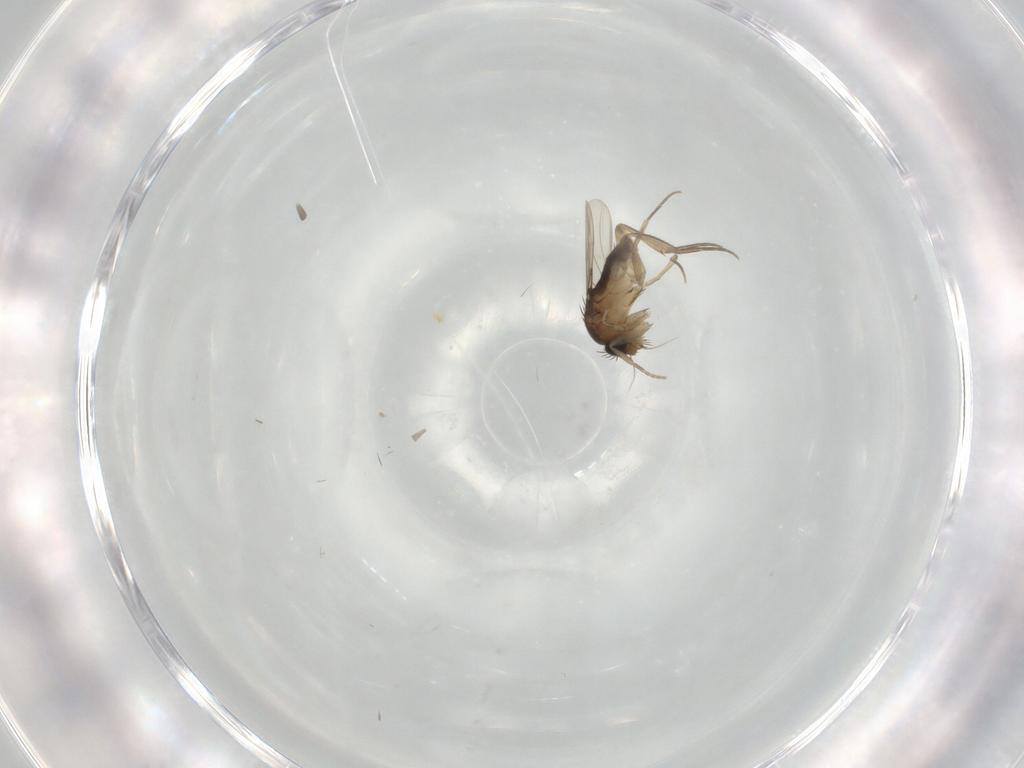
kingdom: Animalia
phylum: Arthropoda
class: Insecta
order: Diptera
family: Phoridae
